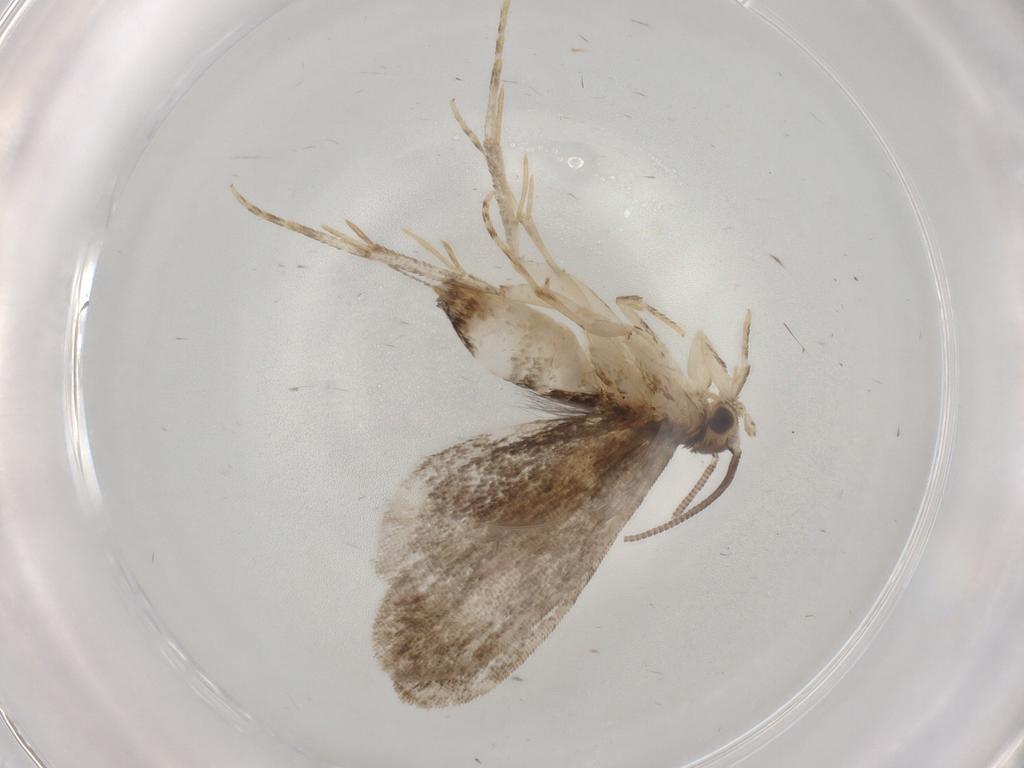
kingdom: Animalia
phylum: Arthropoda
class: Insecta
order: Lepidoptera
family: Dryadaulidae
